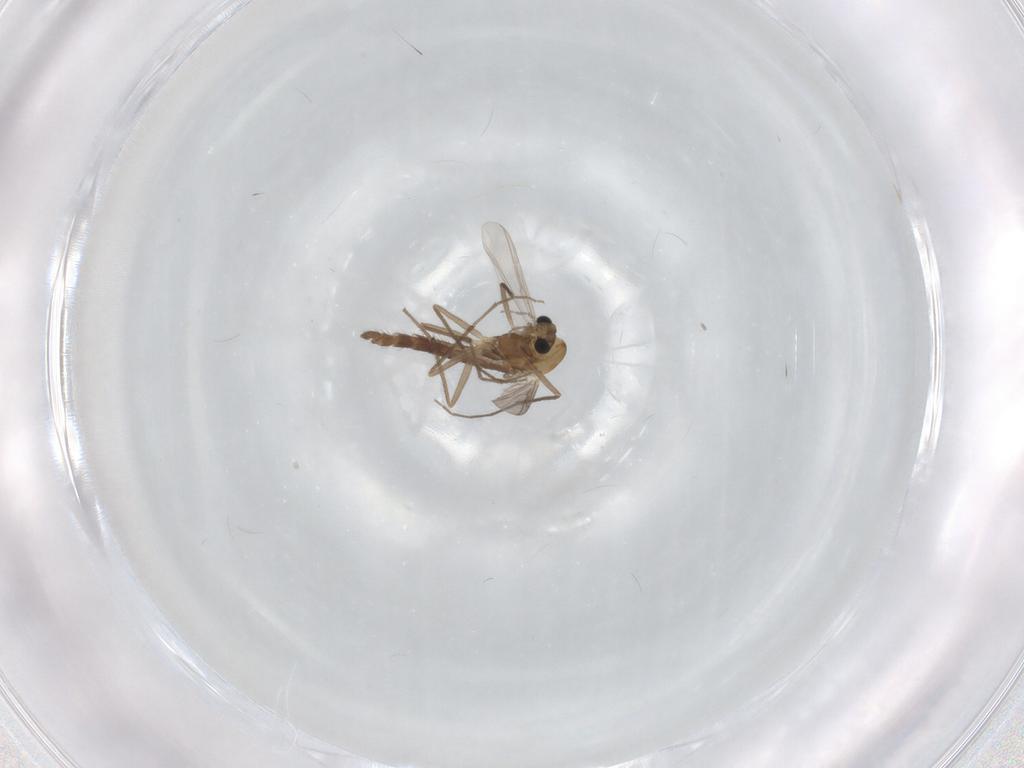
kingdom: Animalia
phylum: Arthropoda
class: Insecta
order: Diptera
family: Chironomidae
